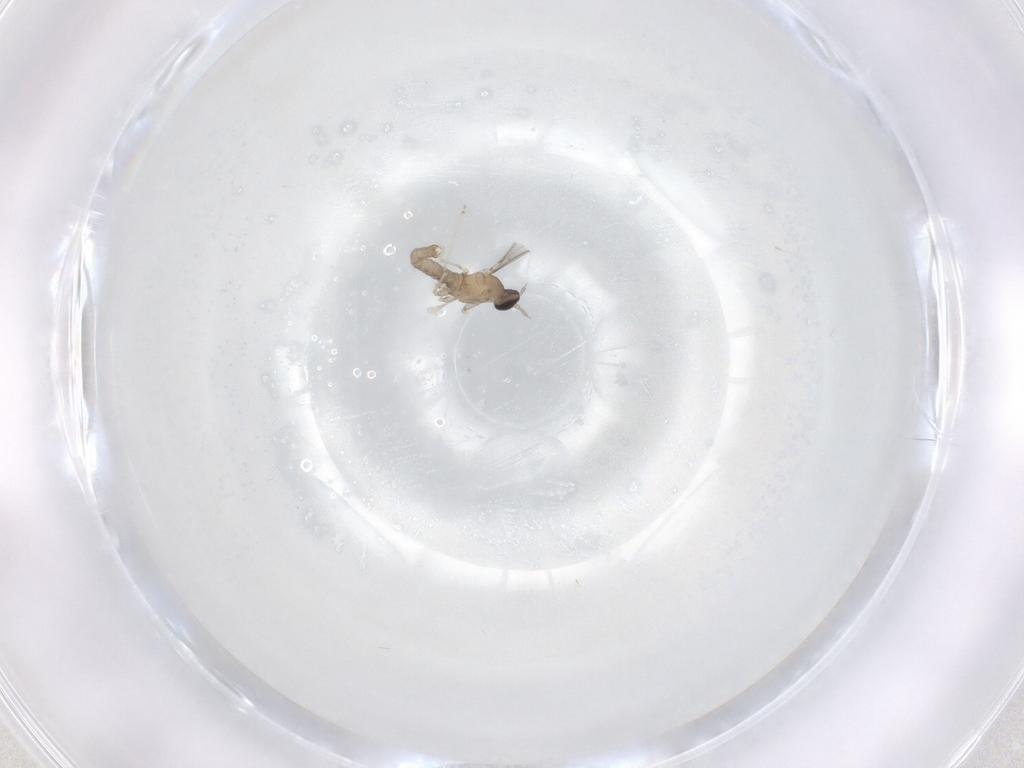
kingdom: Animalia
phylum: Arthropoda
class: Insecta
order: Diptera
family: Cecidomyiidae
